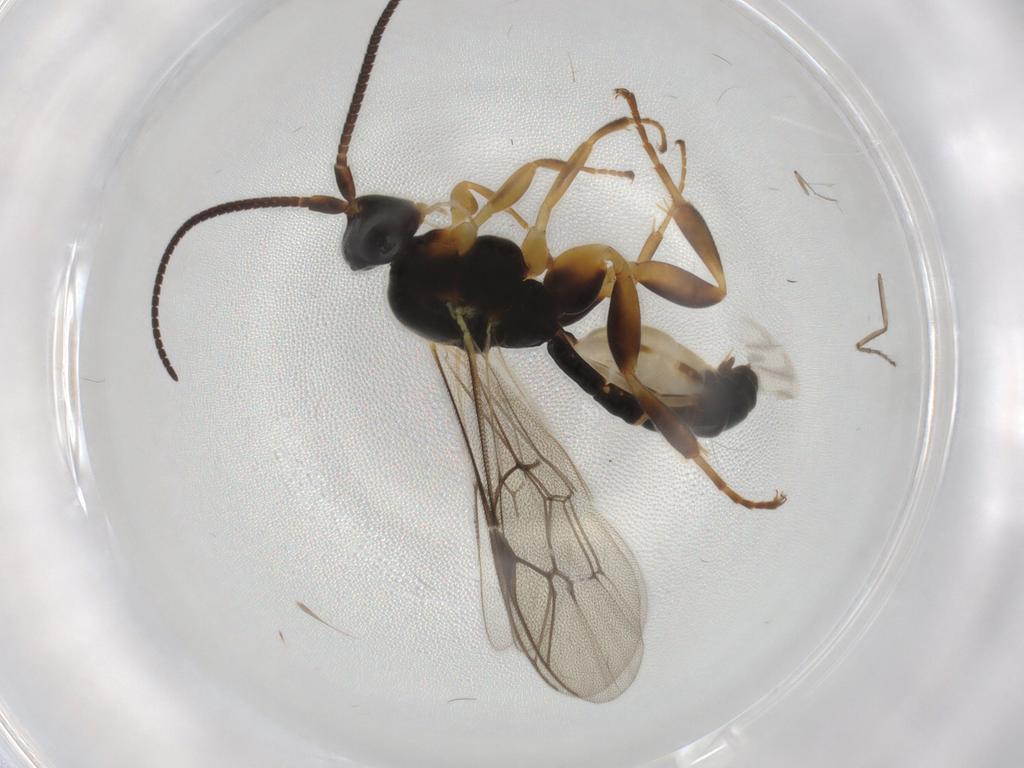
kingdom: Animalia
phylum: Arthropoda
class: Insecta
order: Hymenoptera
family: Ichneumonidae
